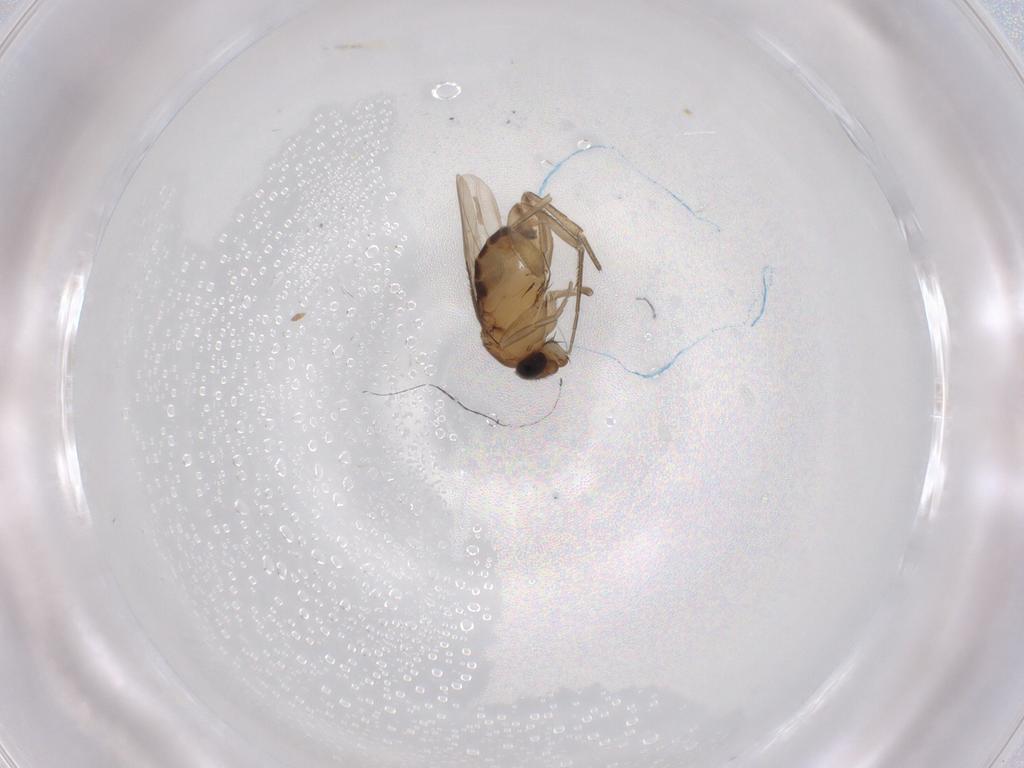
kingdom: Animalia
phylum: Arthropoda
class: Insecta
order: Diptera
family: Phoridae
